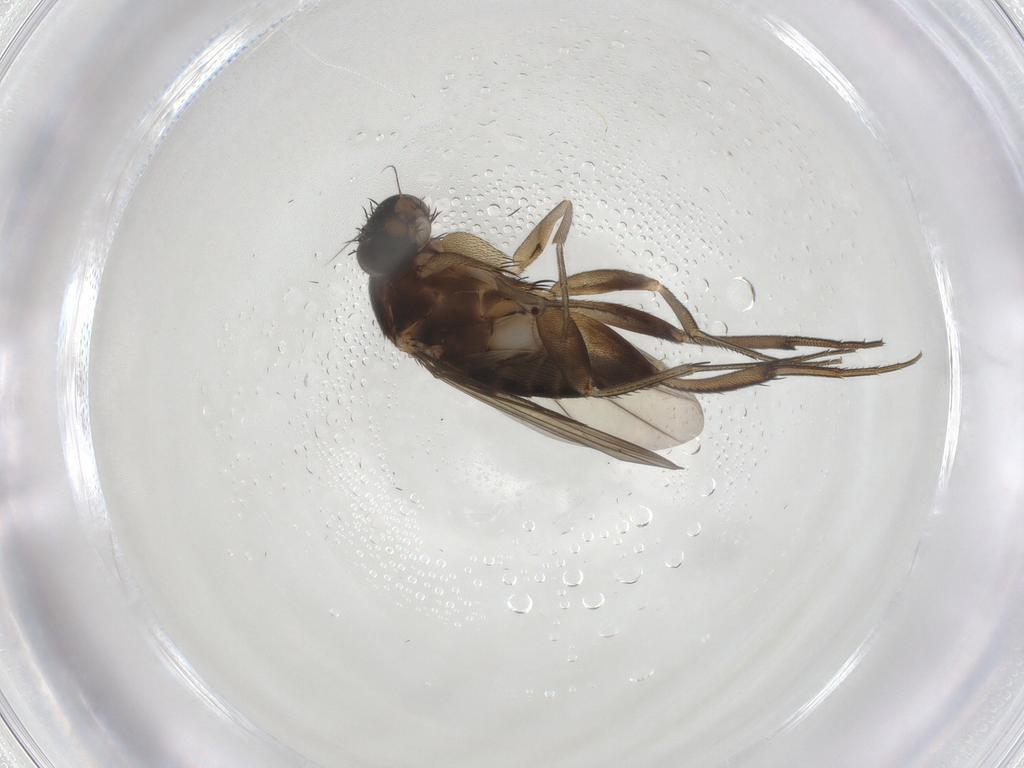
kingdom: Animalia
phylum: Arthropoda
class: Insecta
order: Diptera
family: Phoridae
